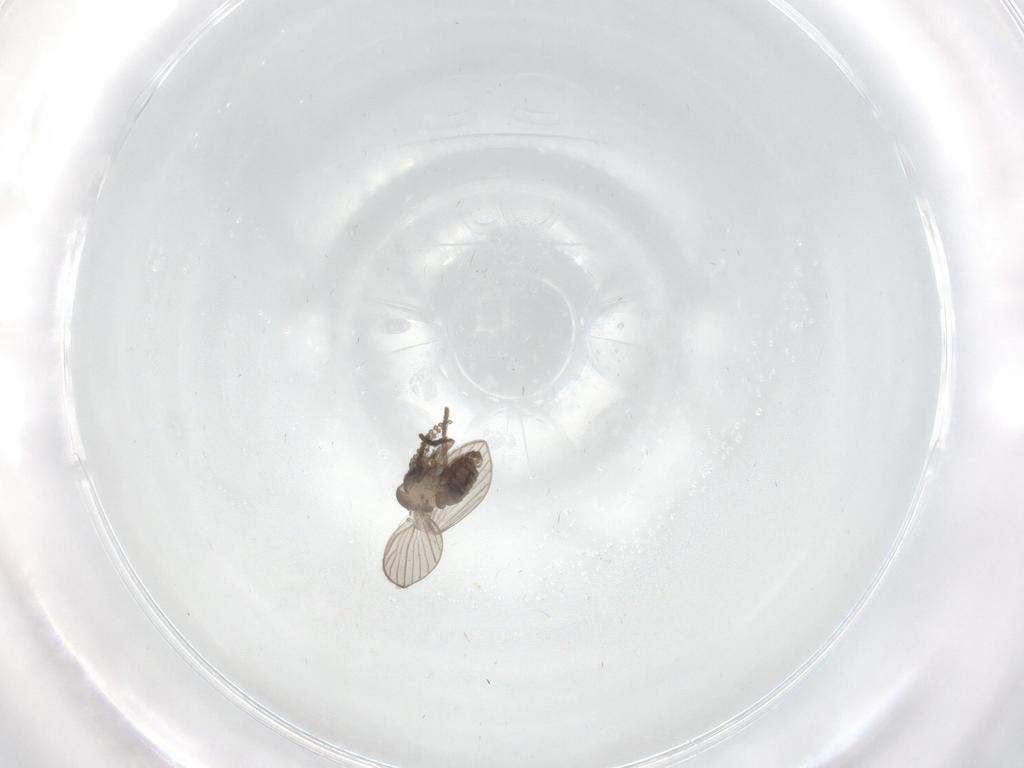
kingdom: Animalia
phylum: Arthropoda
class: Insecta
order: Diptera
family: Psychodidae
